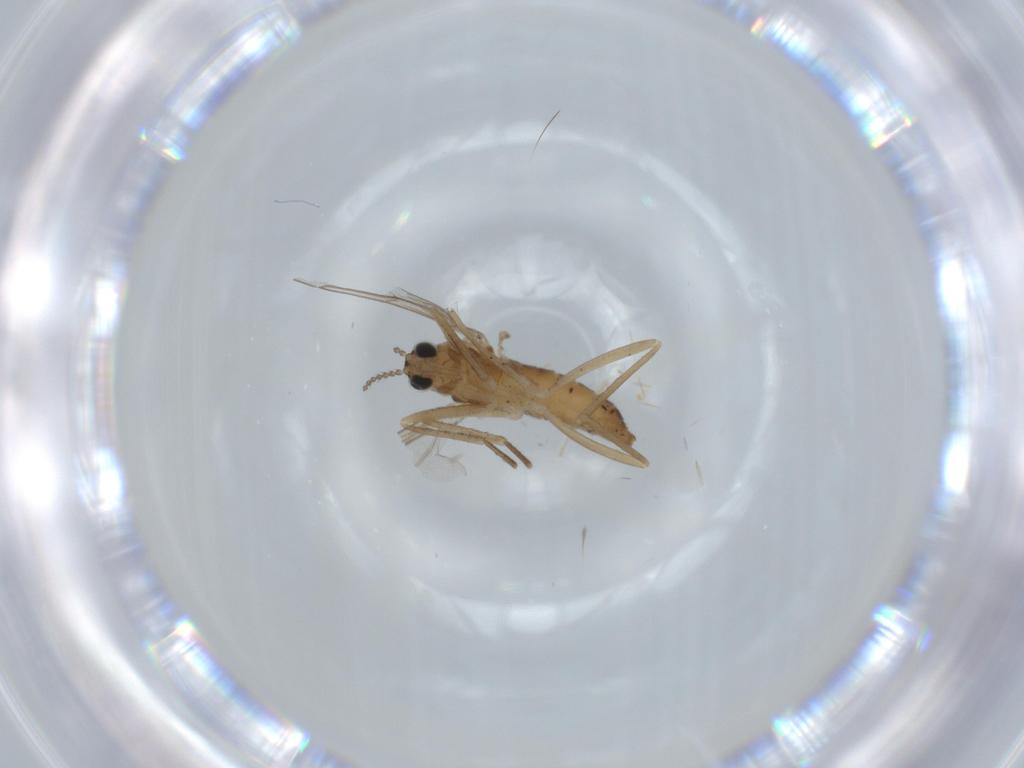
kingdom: Animalia
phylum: Arthropoda
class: Insecta
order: Diptera
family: Cecidomyiidae
